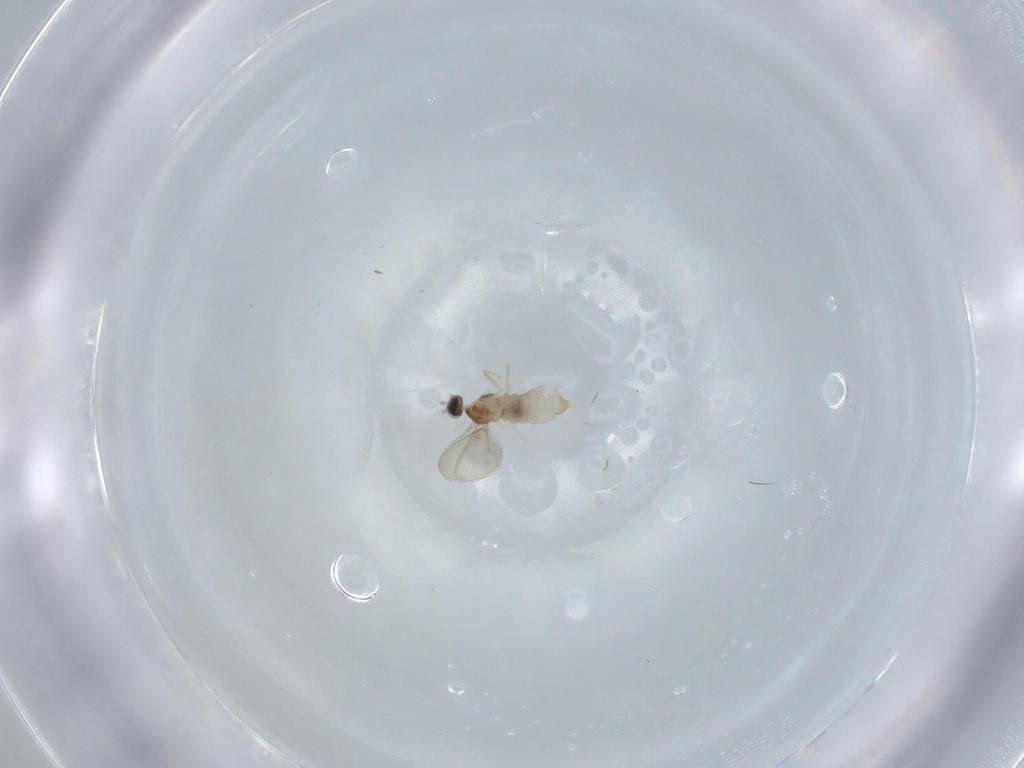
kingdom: Animalia
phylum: Arthropoda
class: Insecta
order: Diptera
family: Cecidomyiidae
